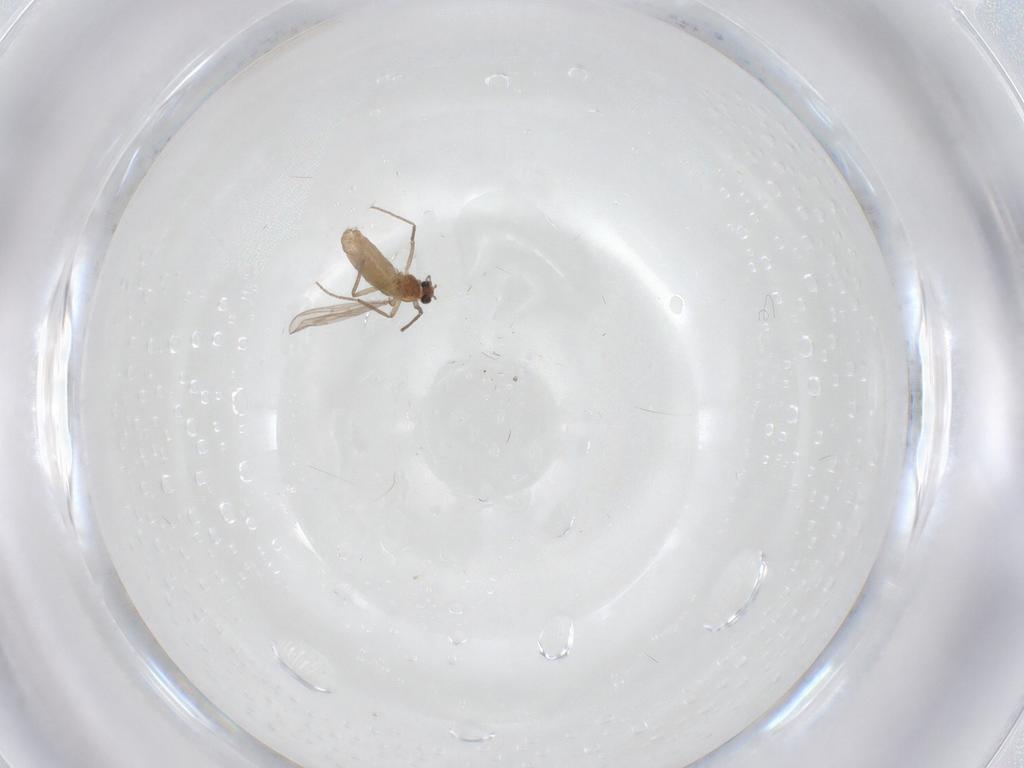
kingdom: Animalia
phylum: Arthropoda
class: Insecta
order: Diptera
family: Chironomidae
